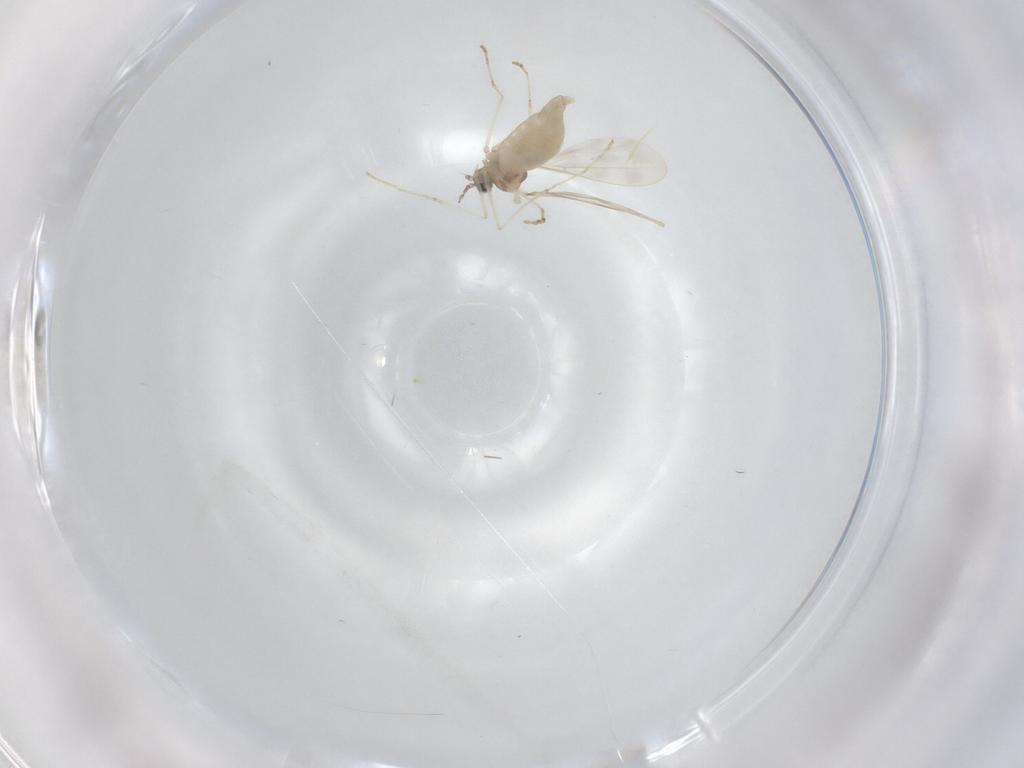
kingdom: Animalia
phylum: Arthropoda
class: Insecta
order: Diptera
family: Cecidomyiidae
